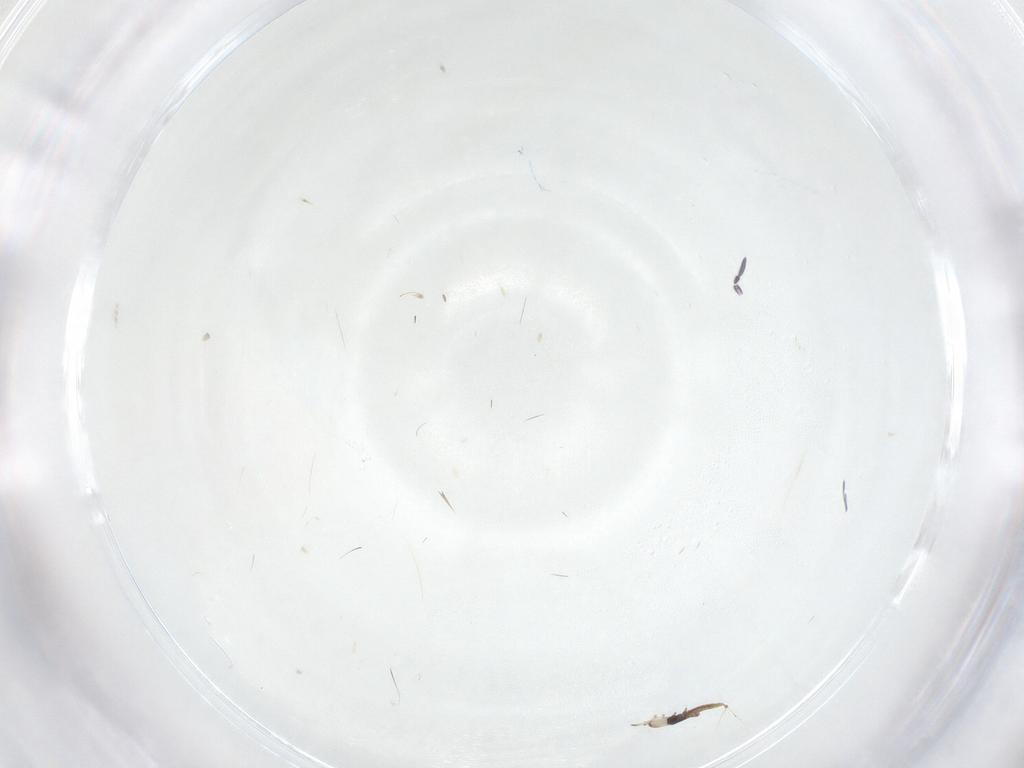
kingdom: Animalia
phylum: Arthropoda
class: Collembola
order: Entomobryomorpha
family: Entomobryidae
